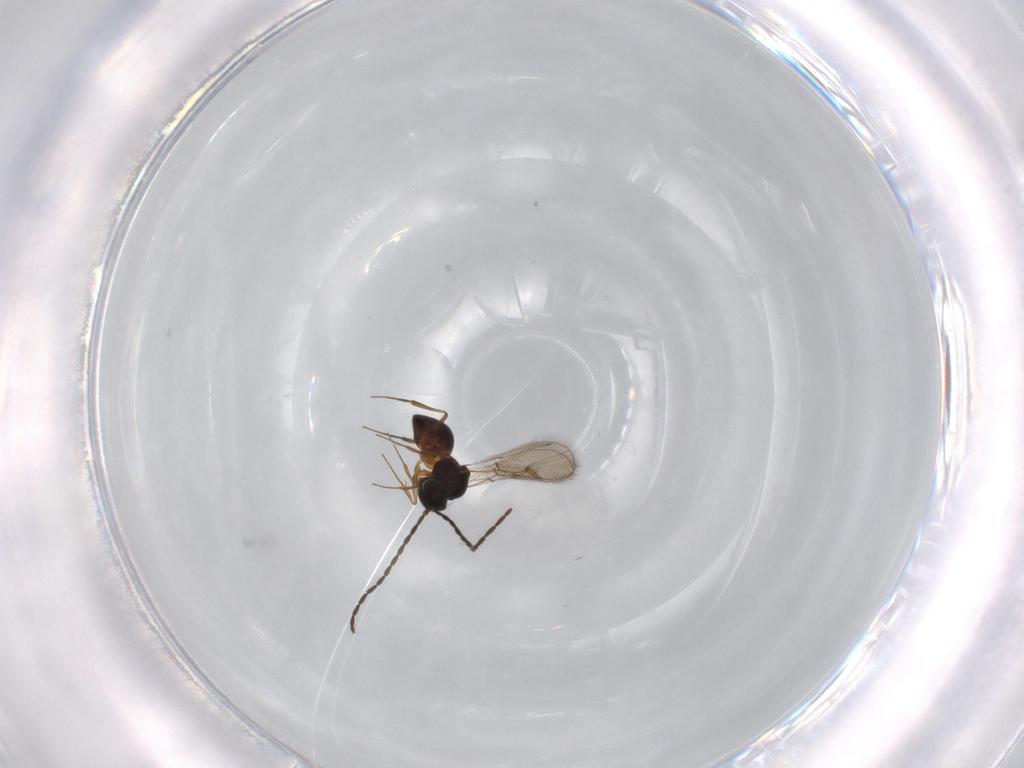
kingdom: Animalia
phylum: Arthropoda
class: Insecta
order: Hymenoptera
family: Figitidae
